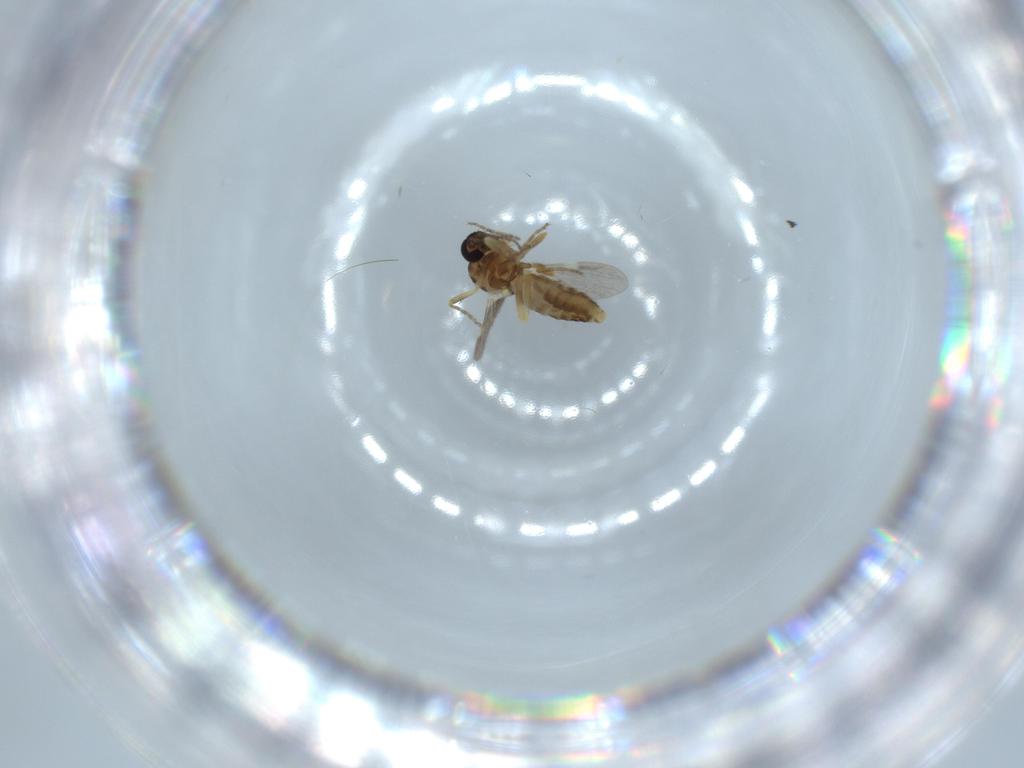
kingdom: Animalia
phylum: Arthropoda
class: Insecta
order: Diptera
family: Ceratopogonidae
